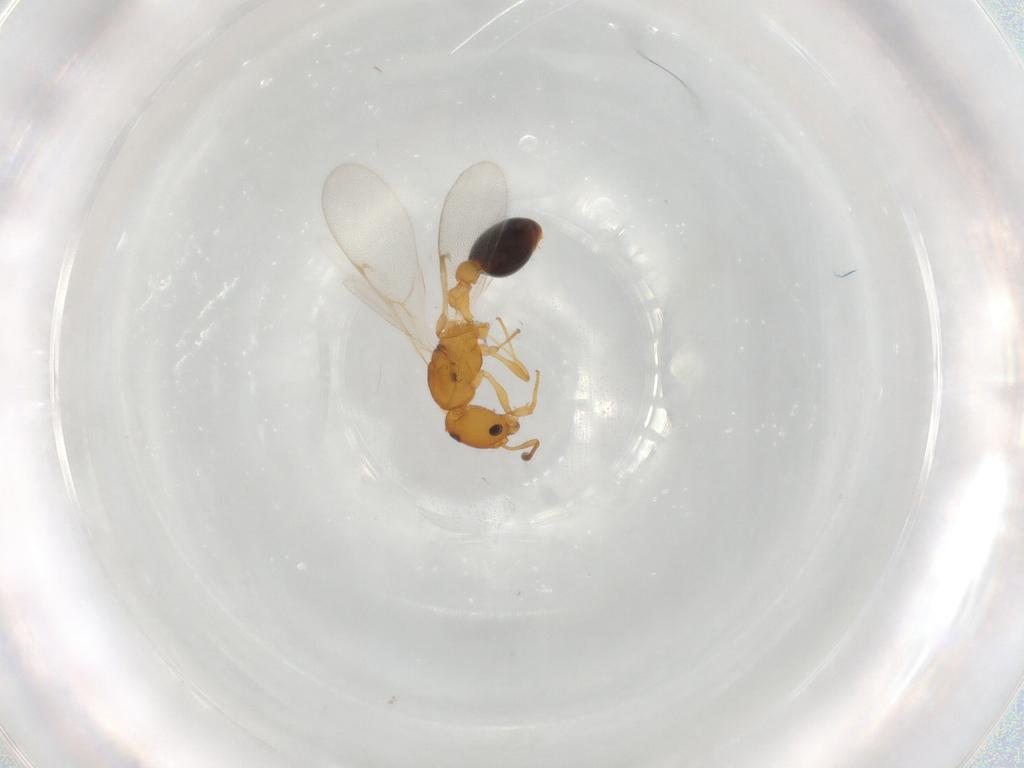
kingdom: Animalia
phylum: Arthropoda
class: Insecta
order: Hymenoptera
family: Formicidae
